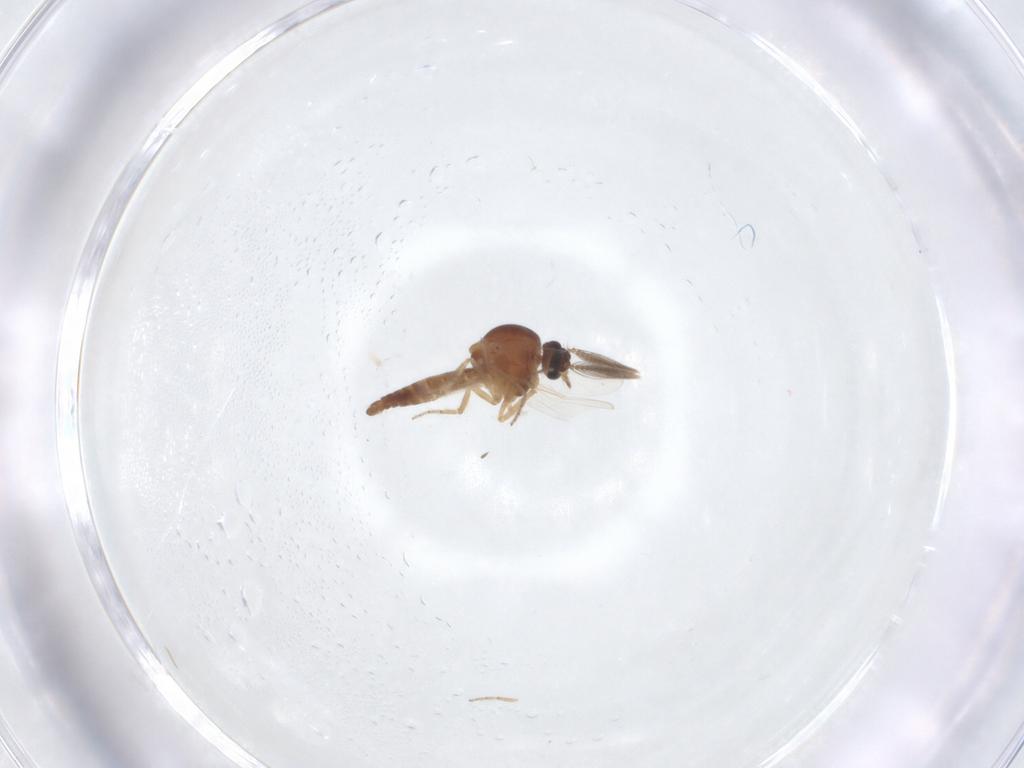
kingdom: Animalia
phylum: Arthropoda
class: Insecta
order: Diptera
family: Ceratopogonidae
